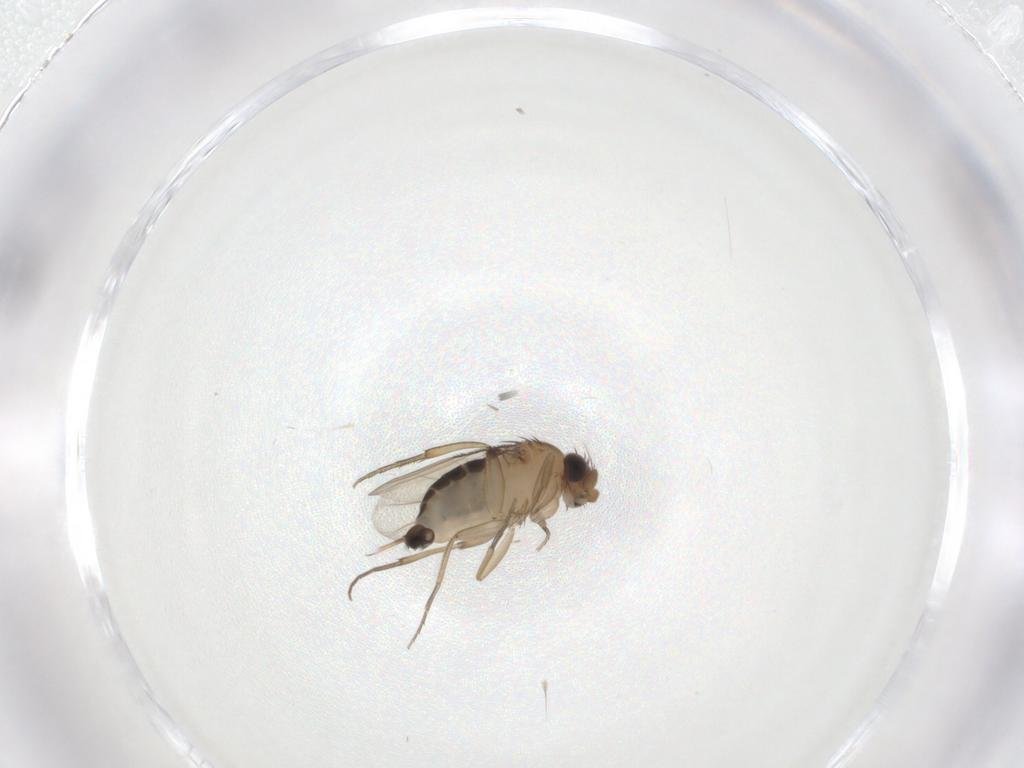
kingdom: Animalia
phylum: Arthropoda
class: Insecta
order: Diptera
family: Phoridae
